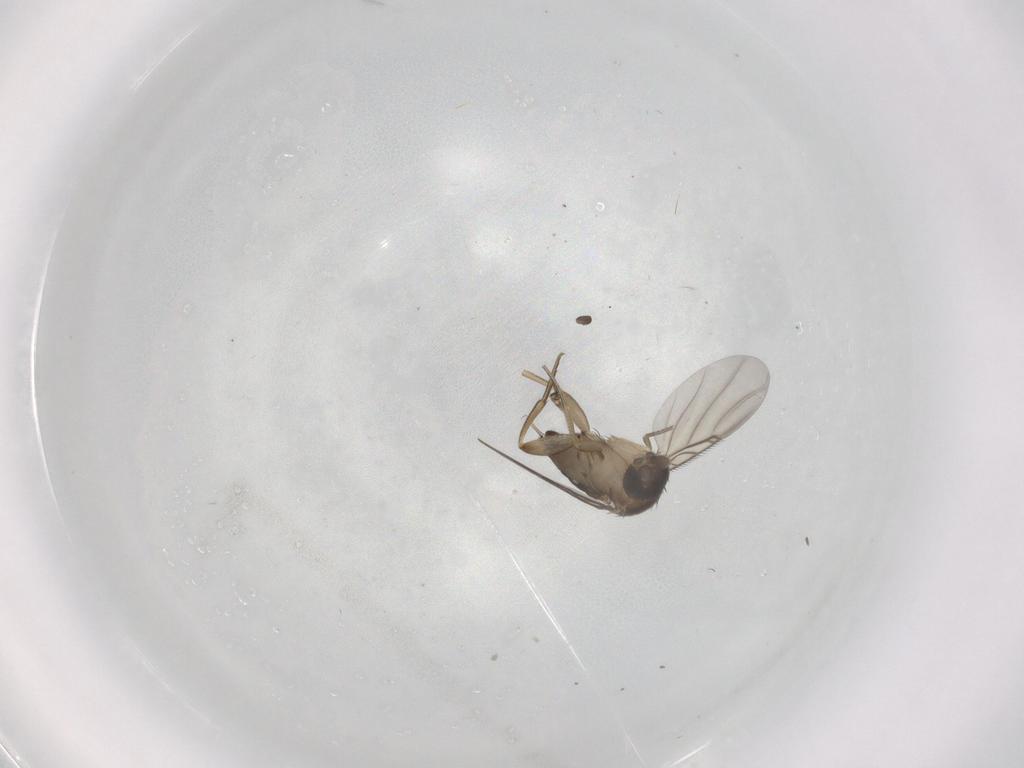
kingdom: Animalia
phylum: Arthropoda
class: Insecta
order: Diptera
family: Phoridae
